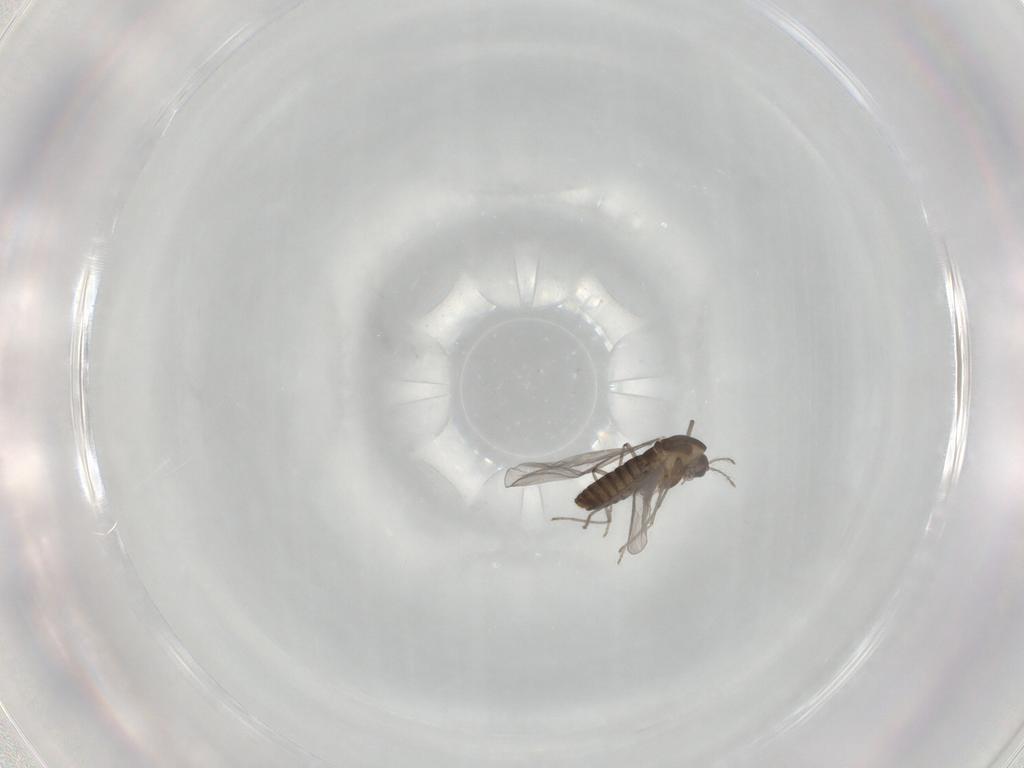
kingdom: Animalia
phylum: Arthropoda
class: Insecta
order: Diptera
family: Chironomidae
